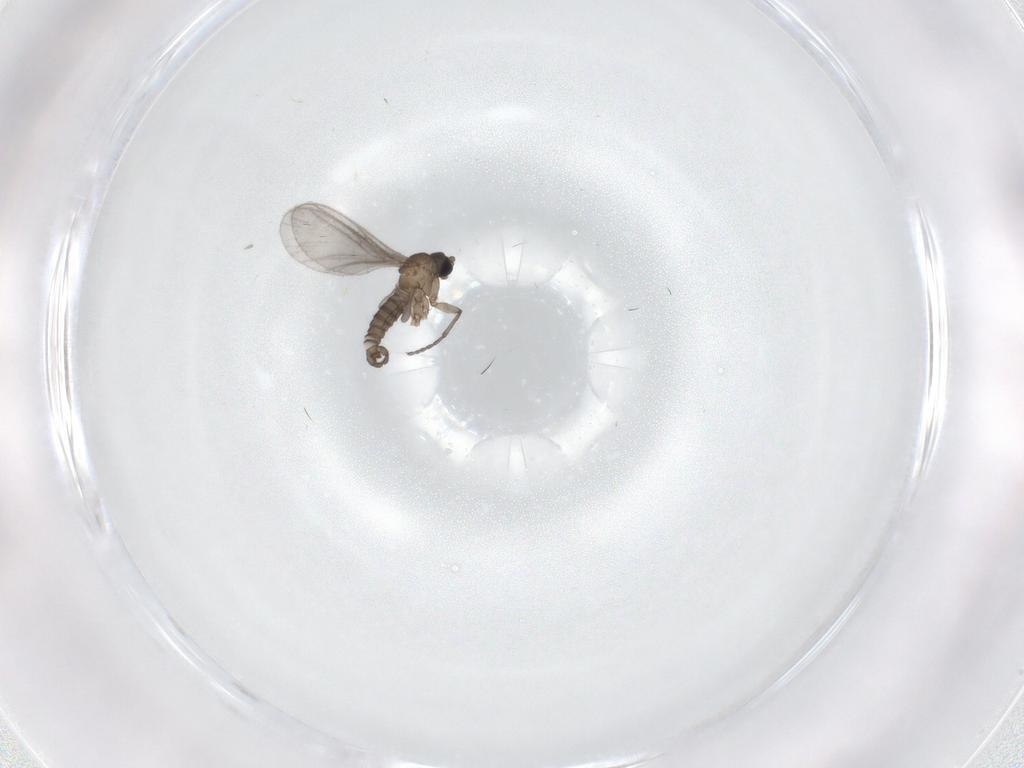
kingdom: Animalia
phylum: Arthropoda
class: Insecta
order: Diptera
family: Sciaridae
